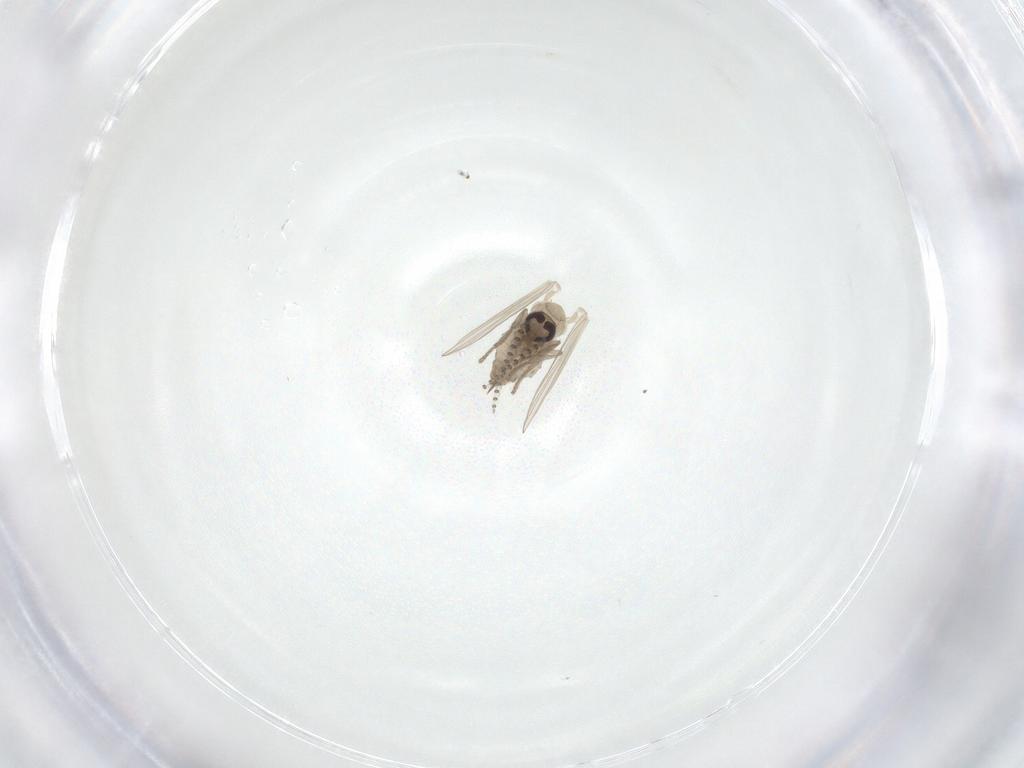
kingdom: Animalia
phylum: Arthropoda
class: Insecta
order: Diptera
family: Psychodidae
